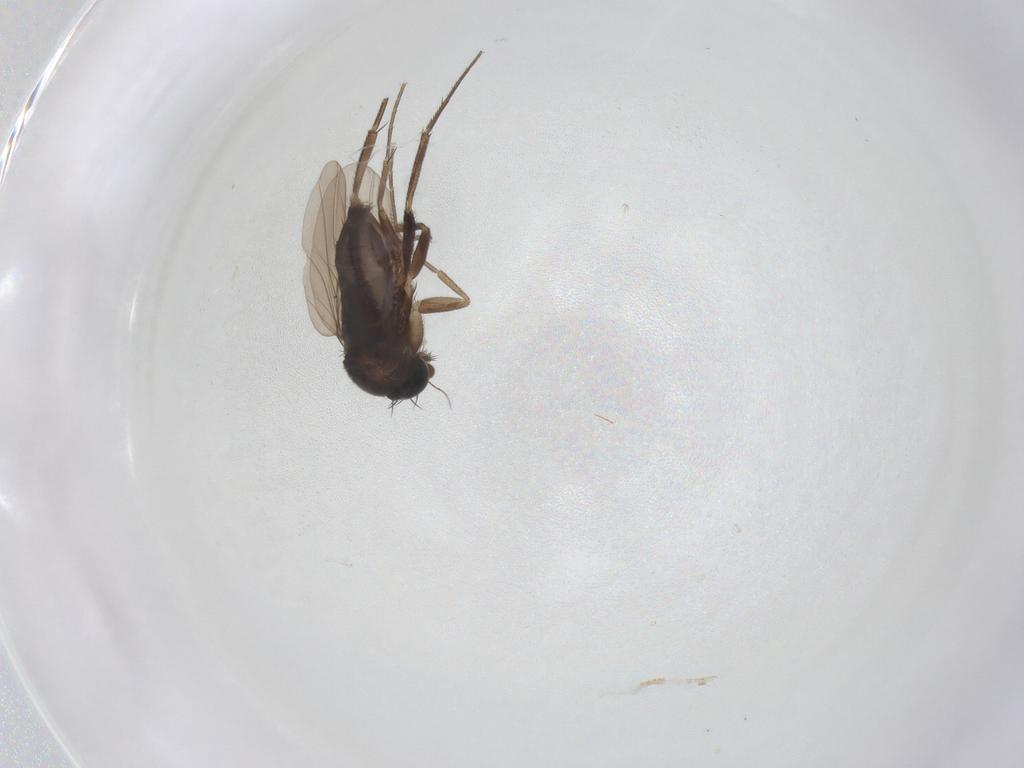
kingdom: Animalia
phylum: Arthropoda
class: Insecta
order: Diptera
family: Phoridae
